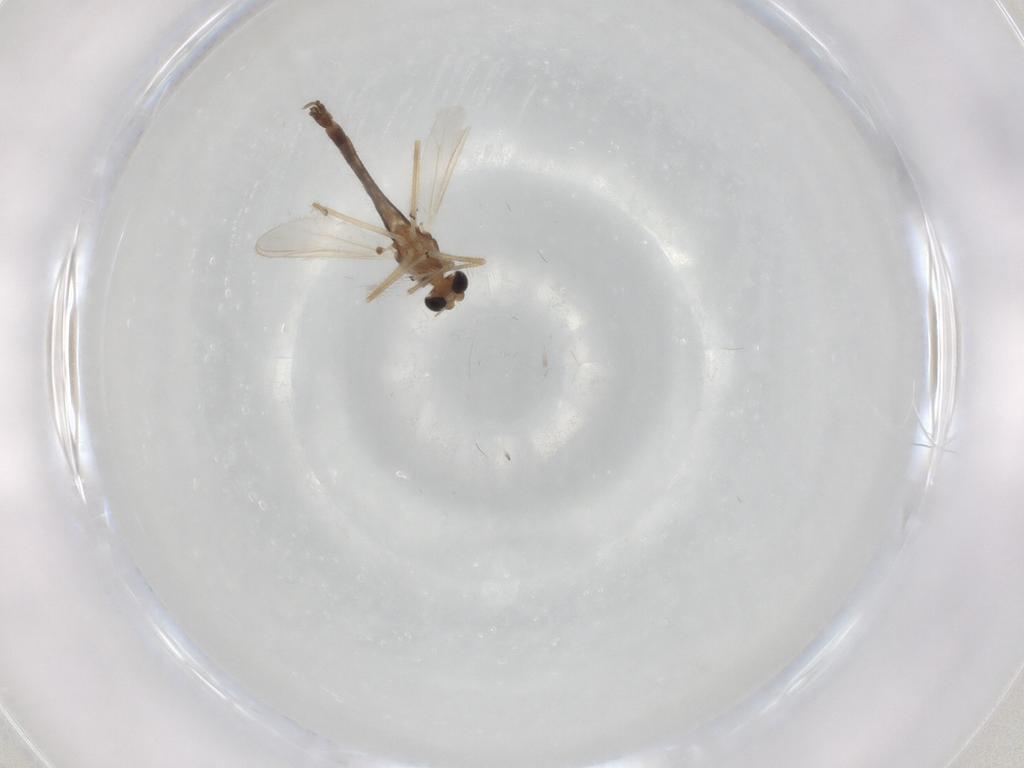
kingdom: Animalia
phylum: Arthropoda
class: Insecta
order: Diptera
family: Chironomidae
